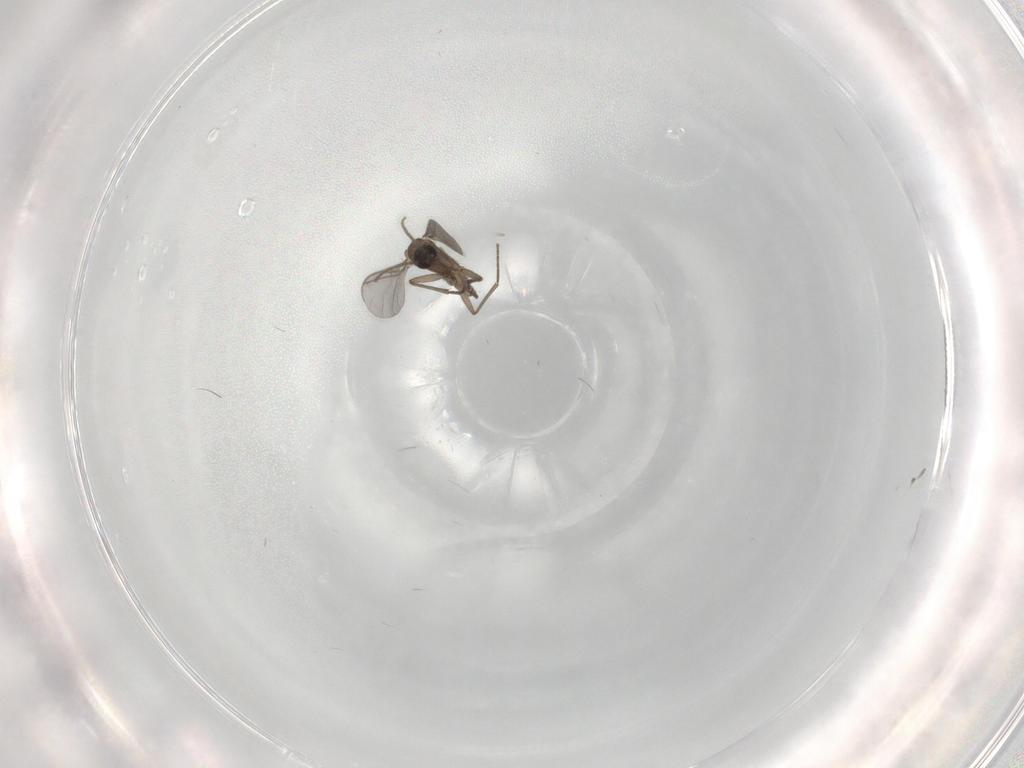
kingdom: Animalia
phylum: Arthropoda
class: Insecta
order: Diptera
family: Sciaridae
